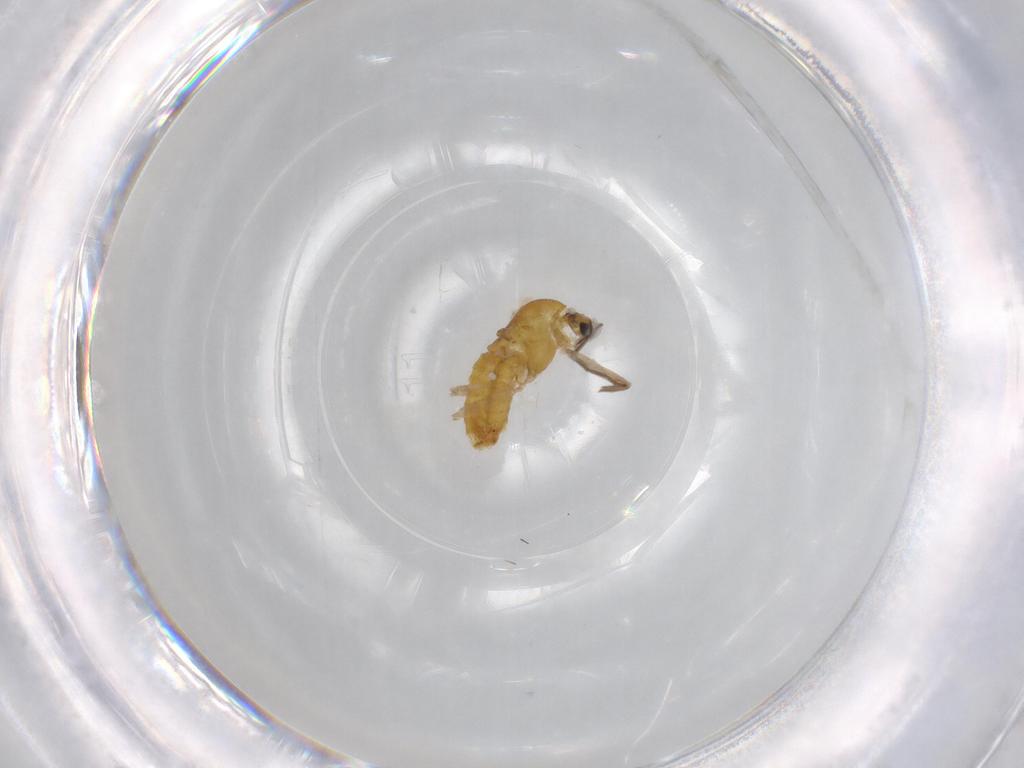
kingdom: Animalia
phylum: Arthropoda
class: Insecta
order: Diptera
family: Chironomidae
